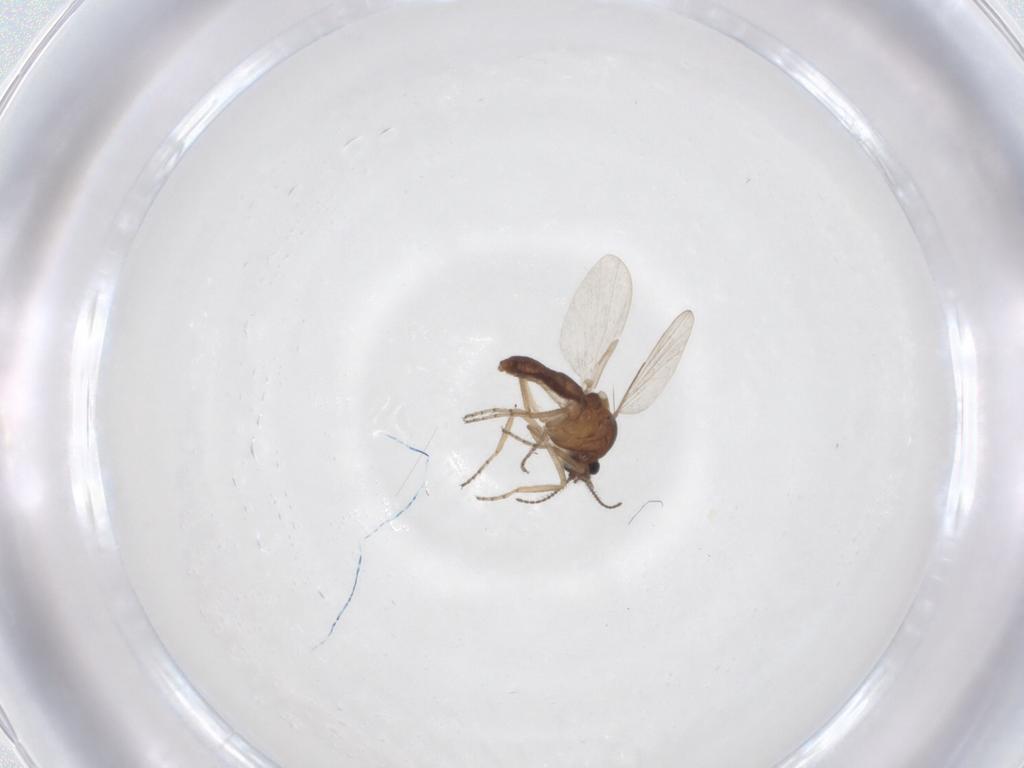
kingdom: Animalia
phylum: Arthropoda
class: Insecta
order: Diptera
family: Ceratopogonidae
